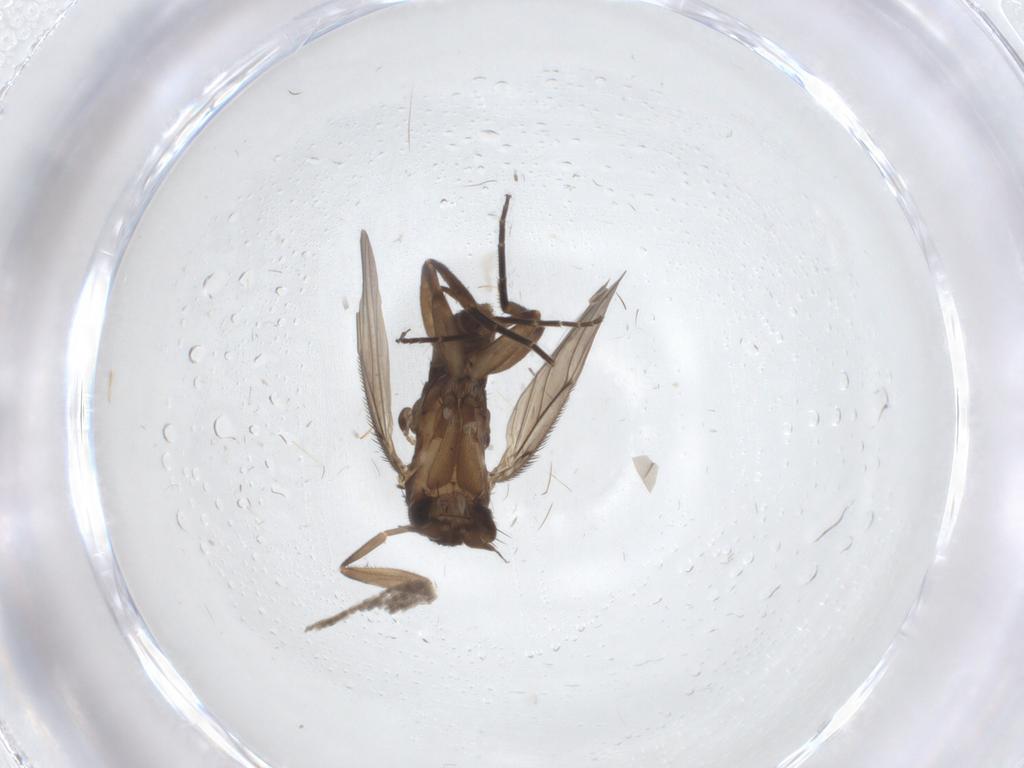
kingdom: Animalia
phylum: Arthropoda
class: Insecta
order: Diptera
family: Phoridae
